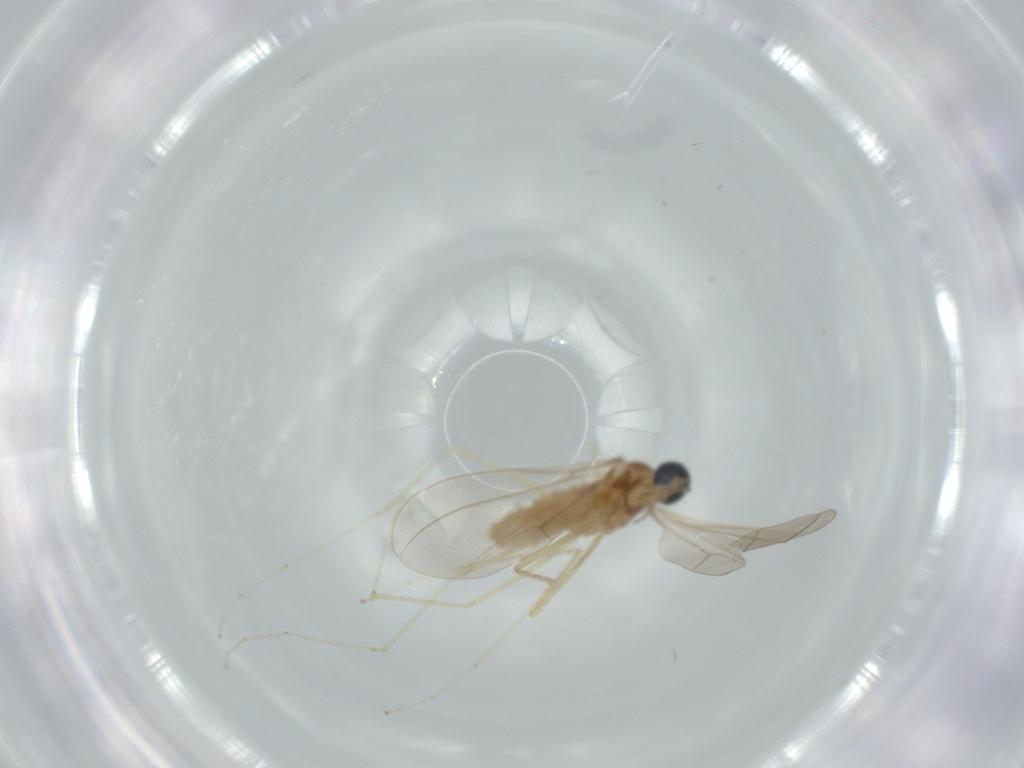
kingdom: Animalia
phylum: Arthropoda
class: Insecta
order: Diptera
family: Cecidomyiidae
